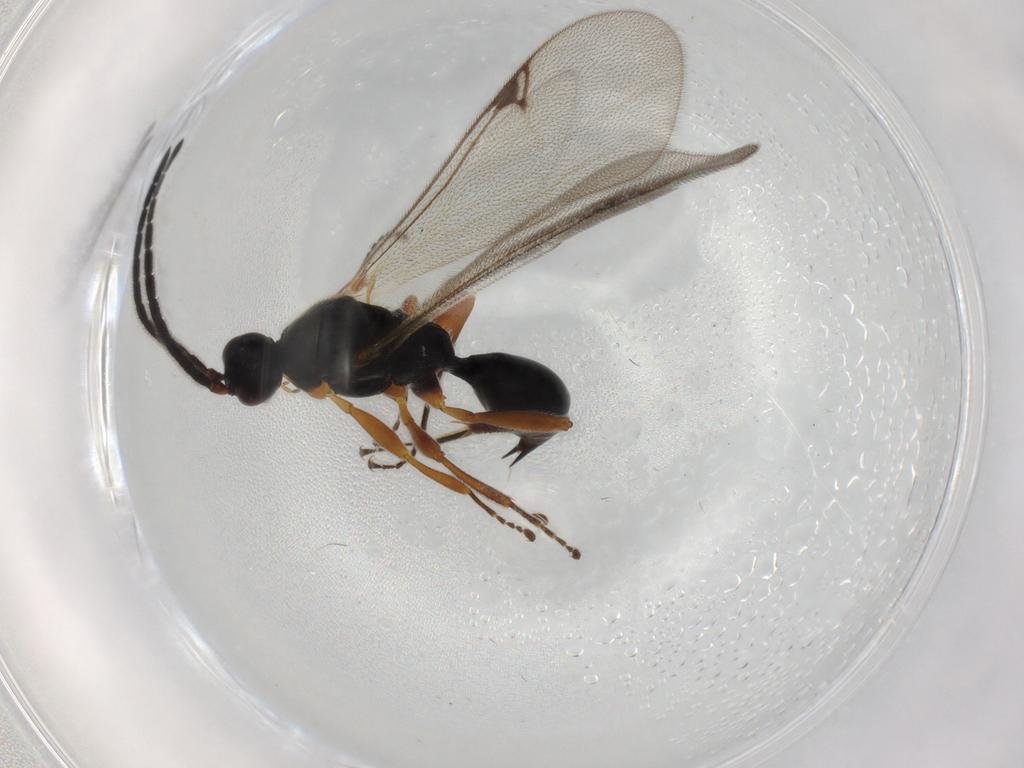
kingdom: Animalia
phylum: Arthropoda
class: Insecta
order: Hymenoptera
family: Proctotrupidae
